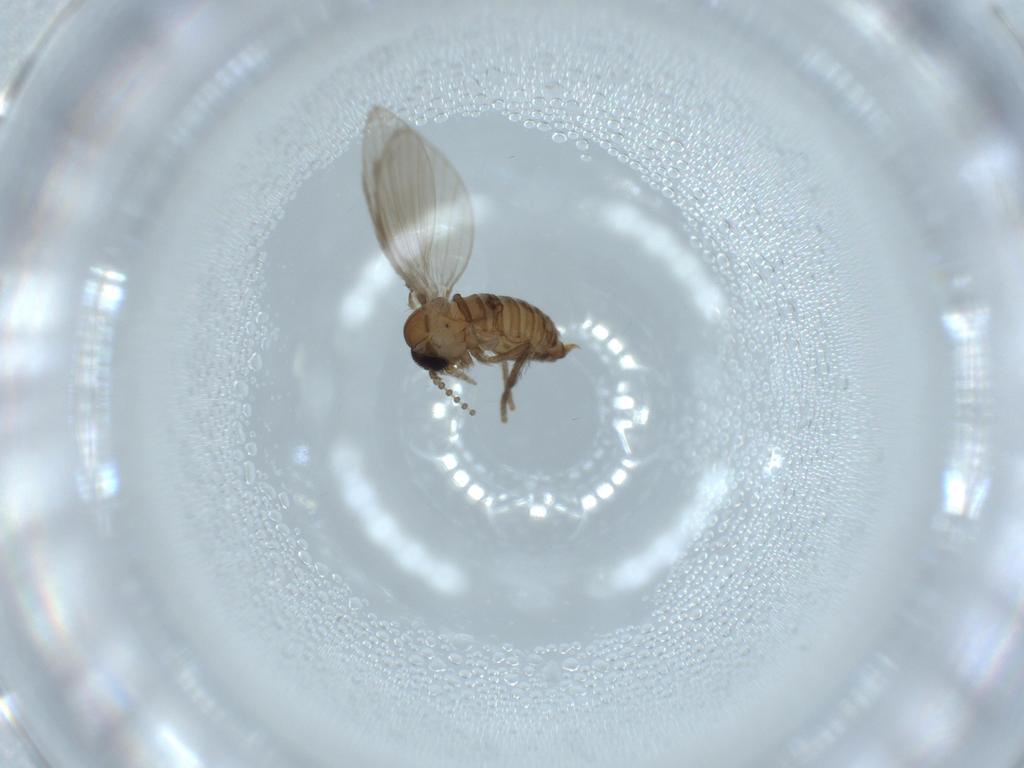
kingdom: Animalia
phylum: Arthropoda
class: Insecta
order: Diptera
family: Psychodidae
